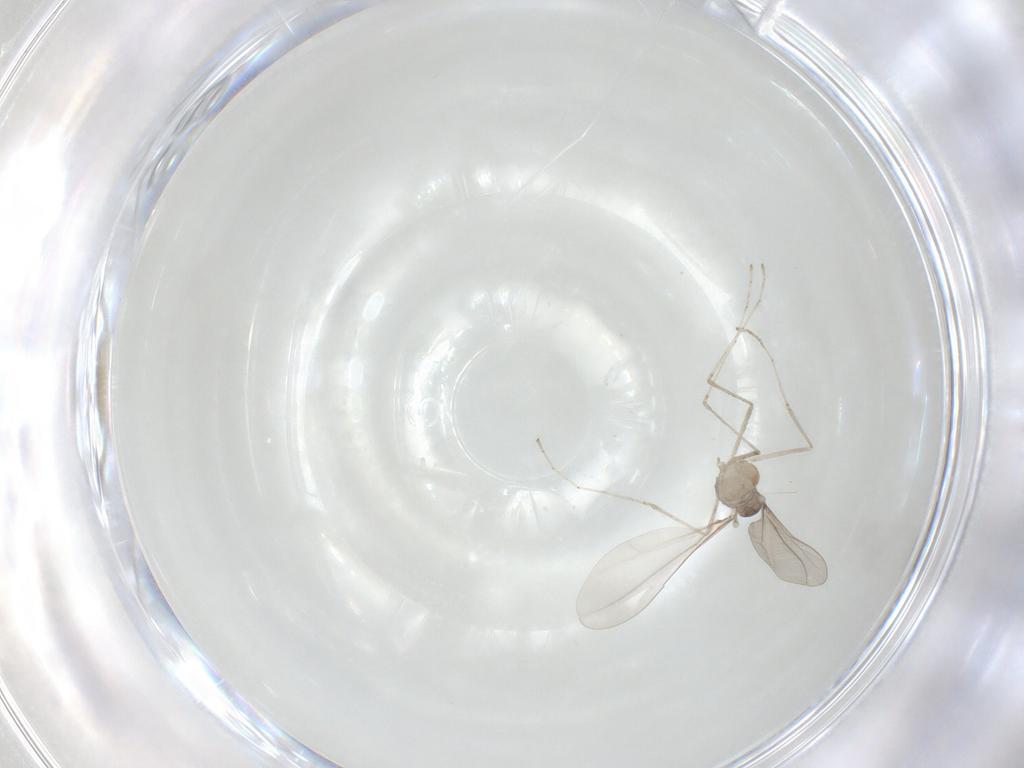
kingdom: Animalia
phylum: Arthropoda
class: Insecta
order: Diptera
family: Cecidomyiidae
